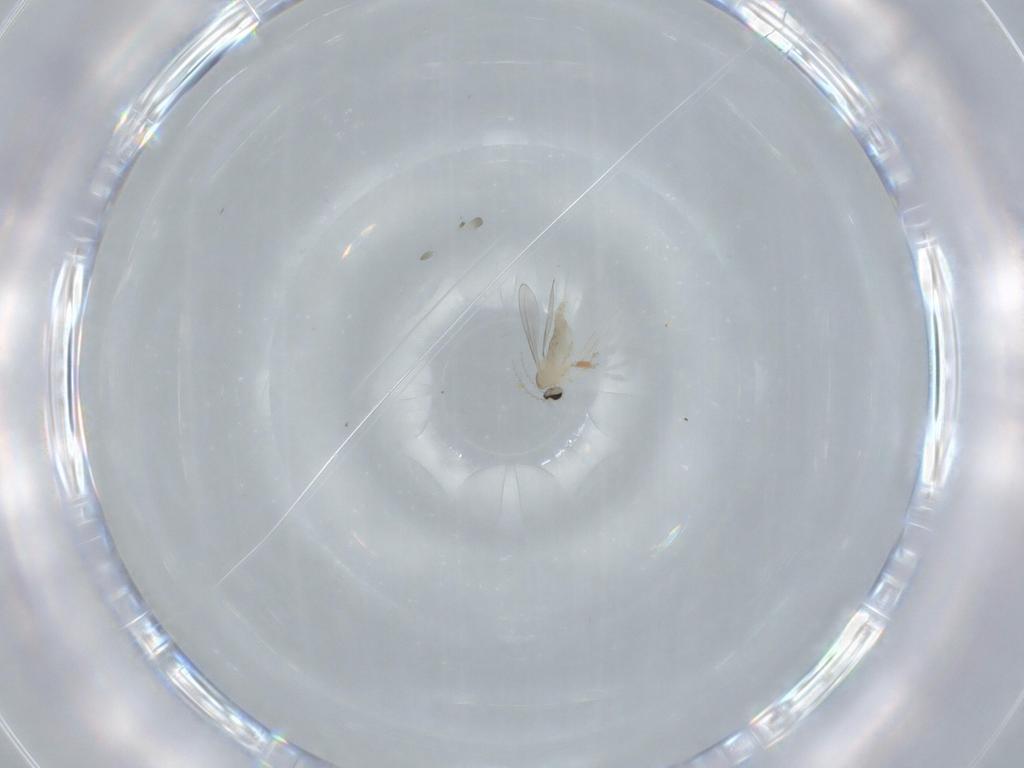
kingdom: Animalia
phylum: Arthropoda
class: Insecta
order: Diptera
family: Cecidomyiidae
